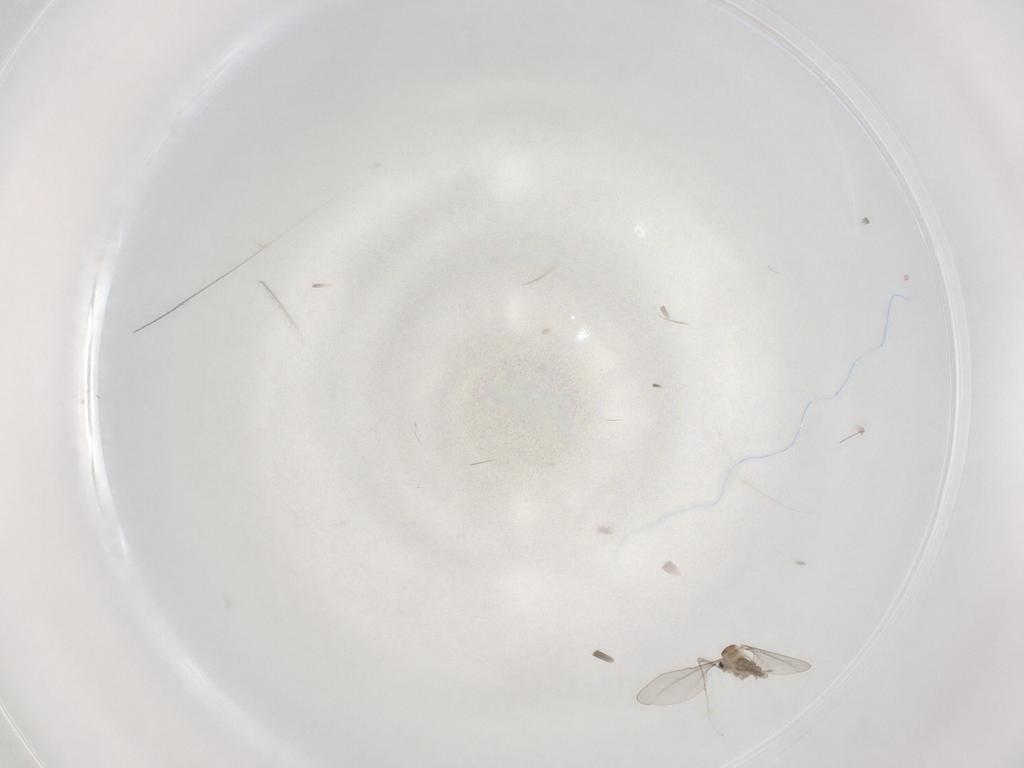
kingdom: Animalia
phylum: Arthropoda
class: Insecta
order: Diptera
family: Cecidomyiidae
